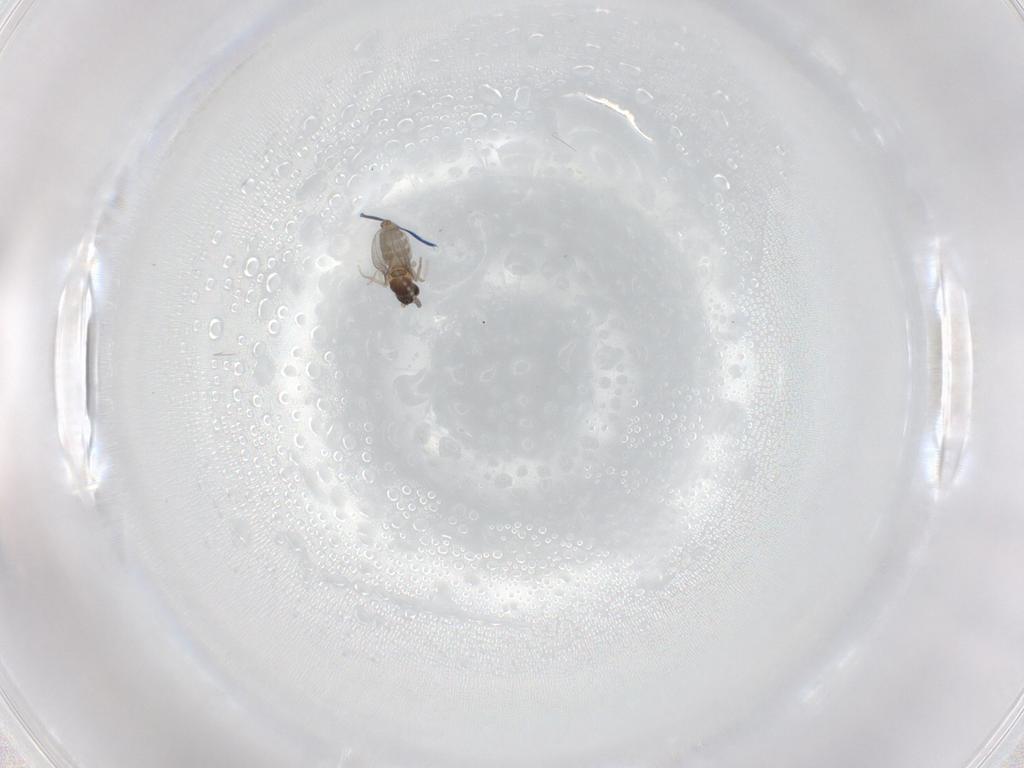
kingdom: Animalia
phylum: Arthropoda
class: Insecta
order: Diptera
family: Cecidomyiidae
